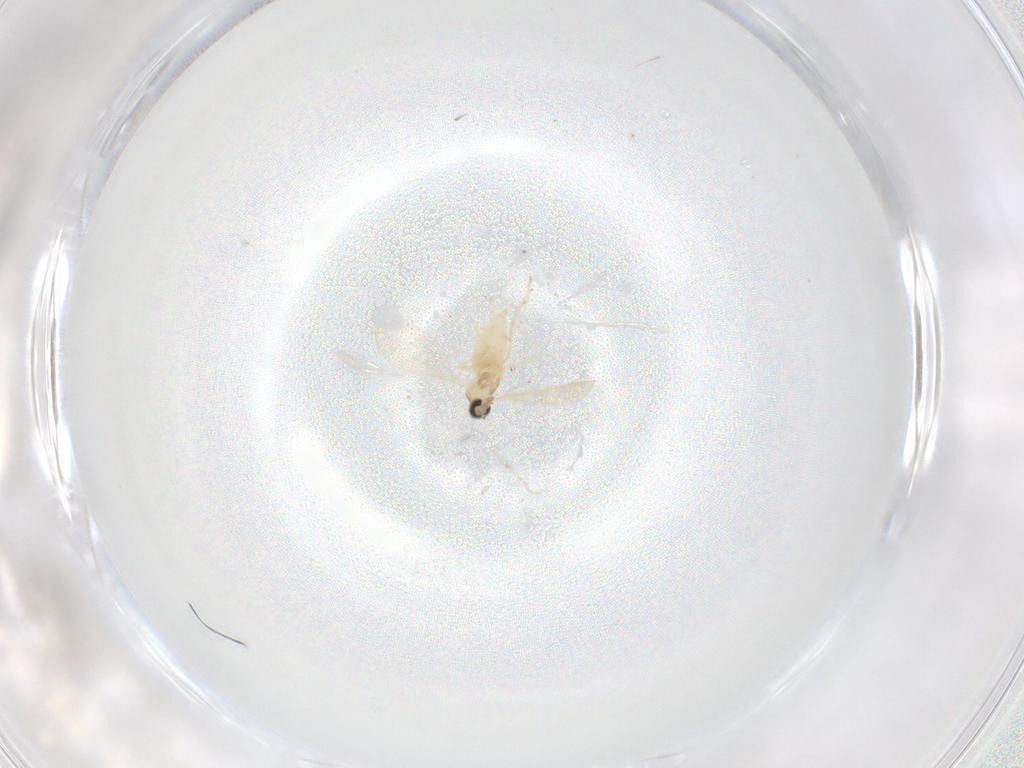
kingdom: Animalia
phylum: Arthropoda
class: Insecta
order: Diptera
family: Cecidomyiidae
